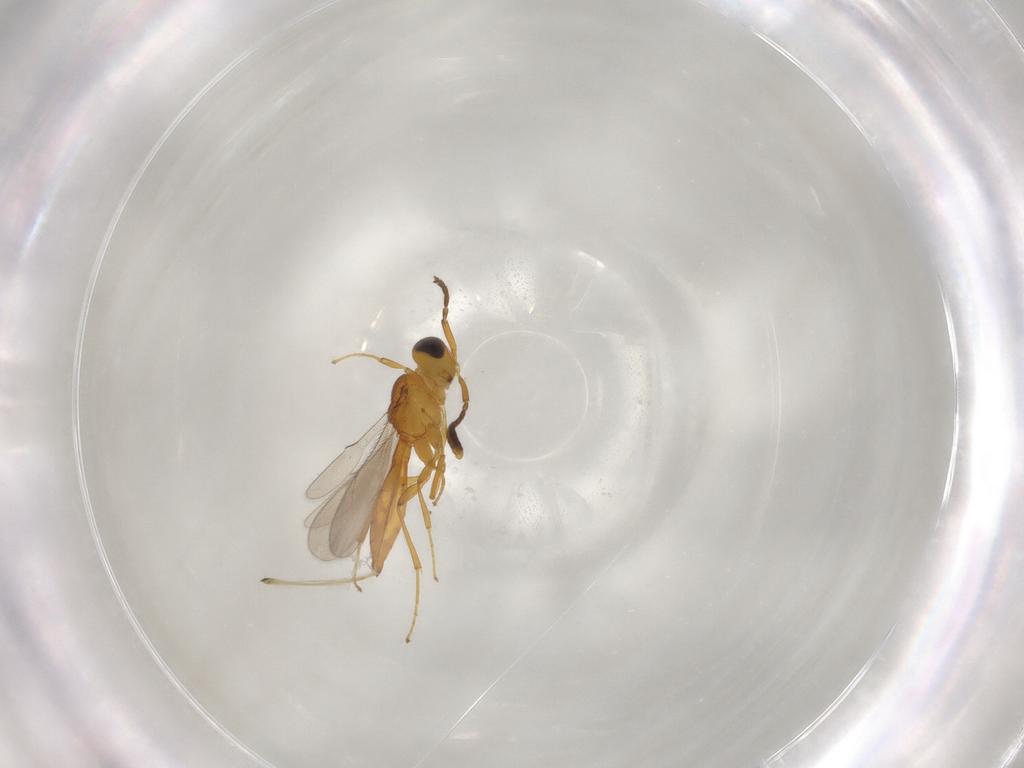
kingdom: Animalia
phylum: Arthropoda
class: Insecta
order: Hymenoptera
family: Scelionidae
